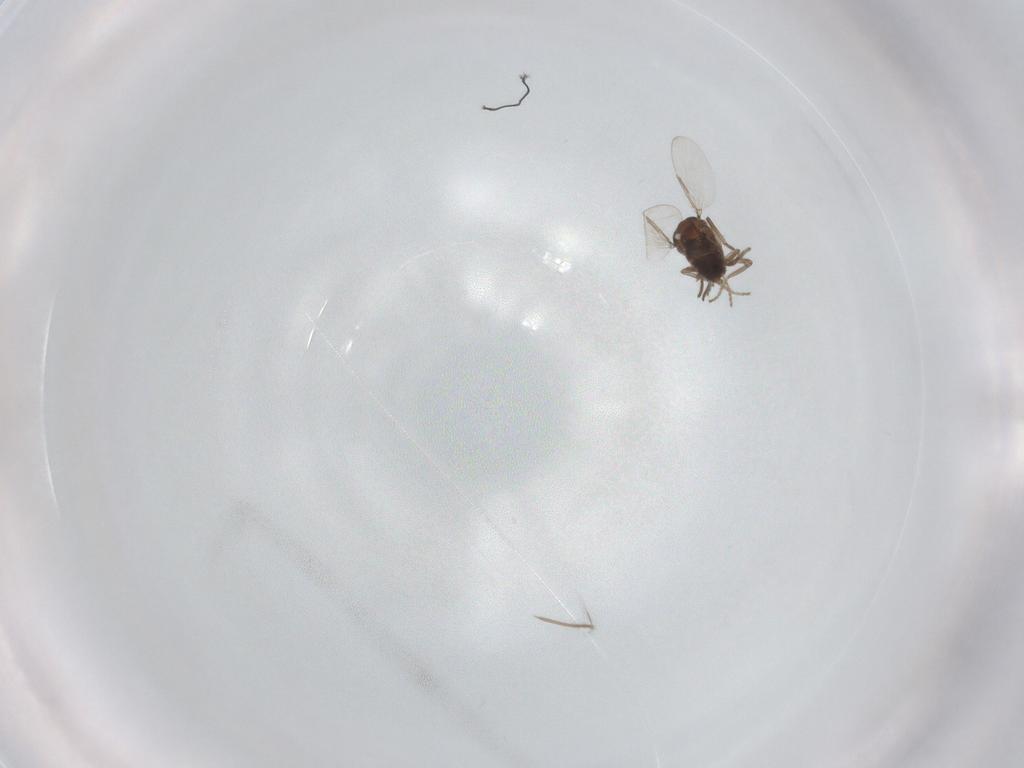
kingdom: Animalia
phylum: Arthropoda
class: Insecta
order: Diptera
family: Ceratopogonidae
